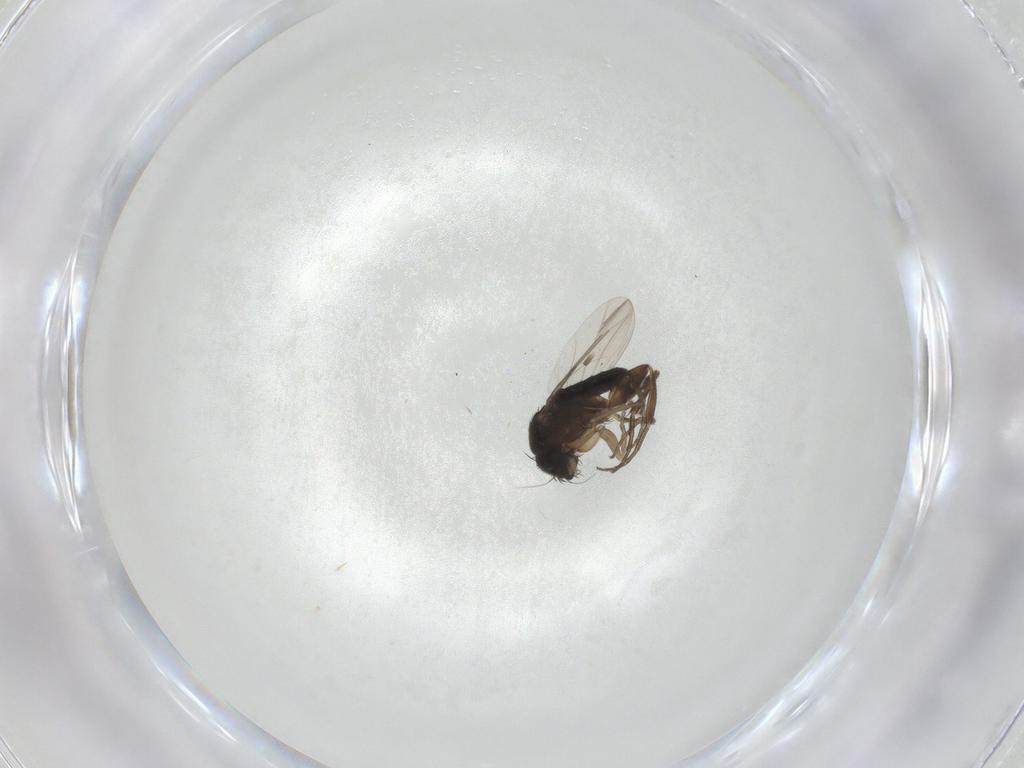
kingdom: Animalia
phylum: Arthropoda
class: Insecta
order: Diptera
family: Phoridae
